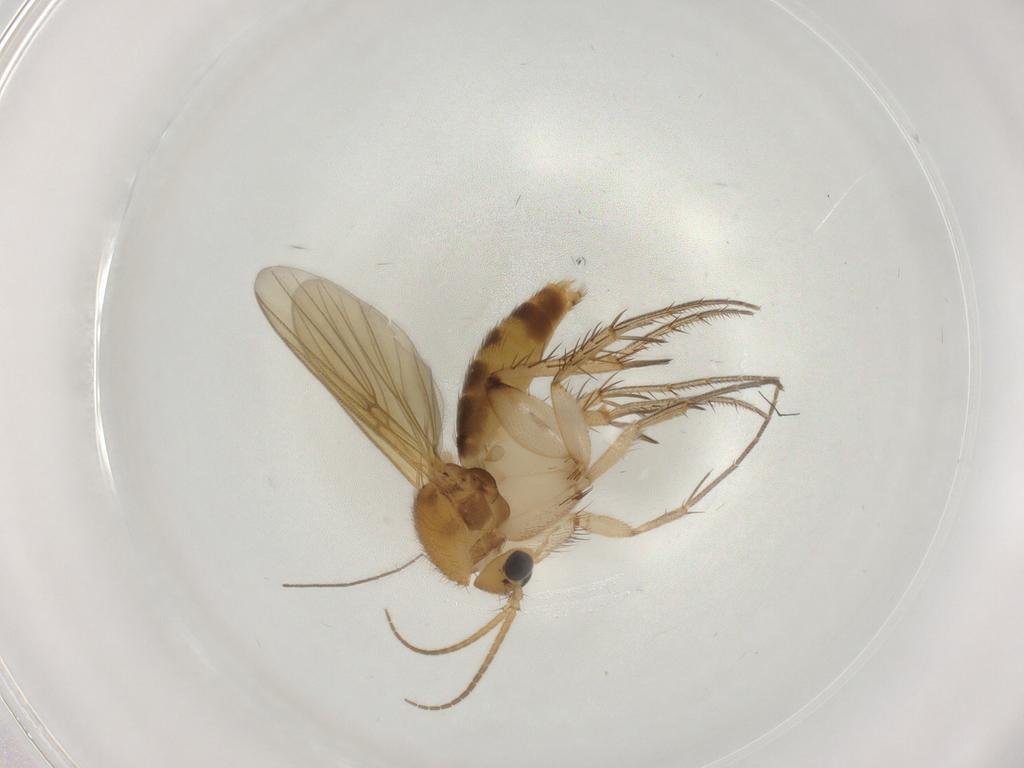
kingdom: Animalia
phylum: Arthropoda
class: Insecta
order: Diptera
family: Phoridae
